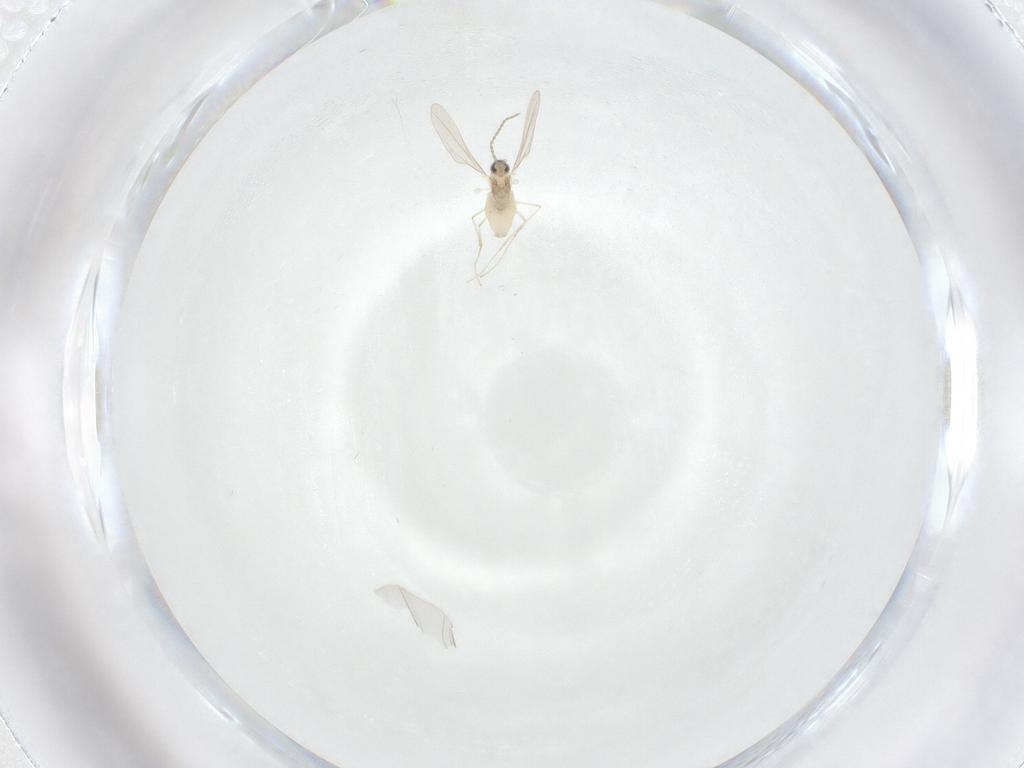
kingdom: Animalia
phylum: Arthropoda
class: Insecta
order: Diptera
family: Cecidomyiidae
